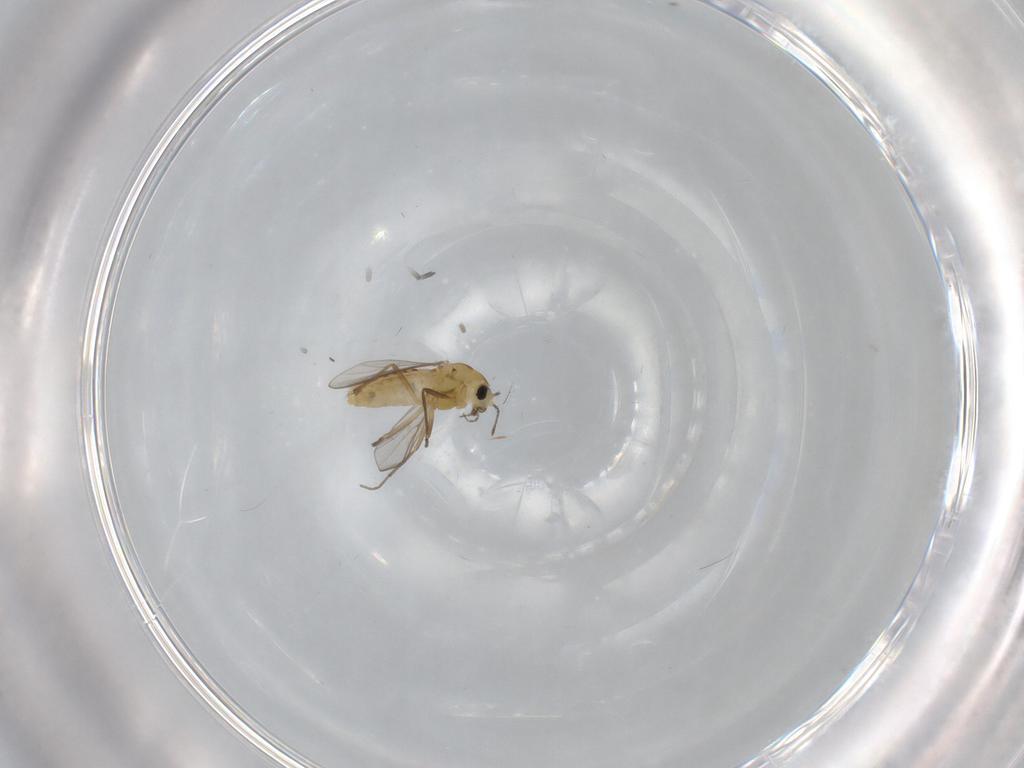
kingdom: Animalia
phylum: Arthropoda
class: Insecta
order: Diptera
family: Chironomidae
